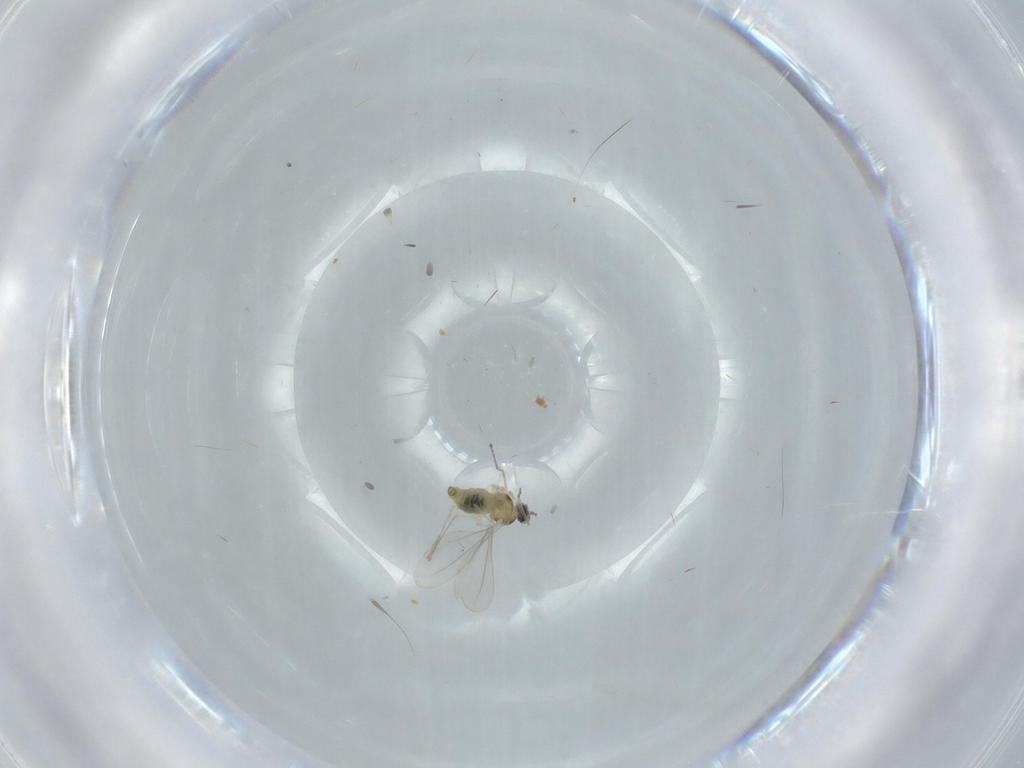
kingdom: Animalia
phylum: Arthropoda
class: Insecta
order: Diptera
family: Cecidomyiidae
